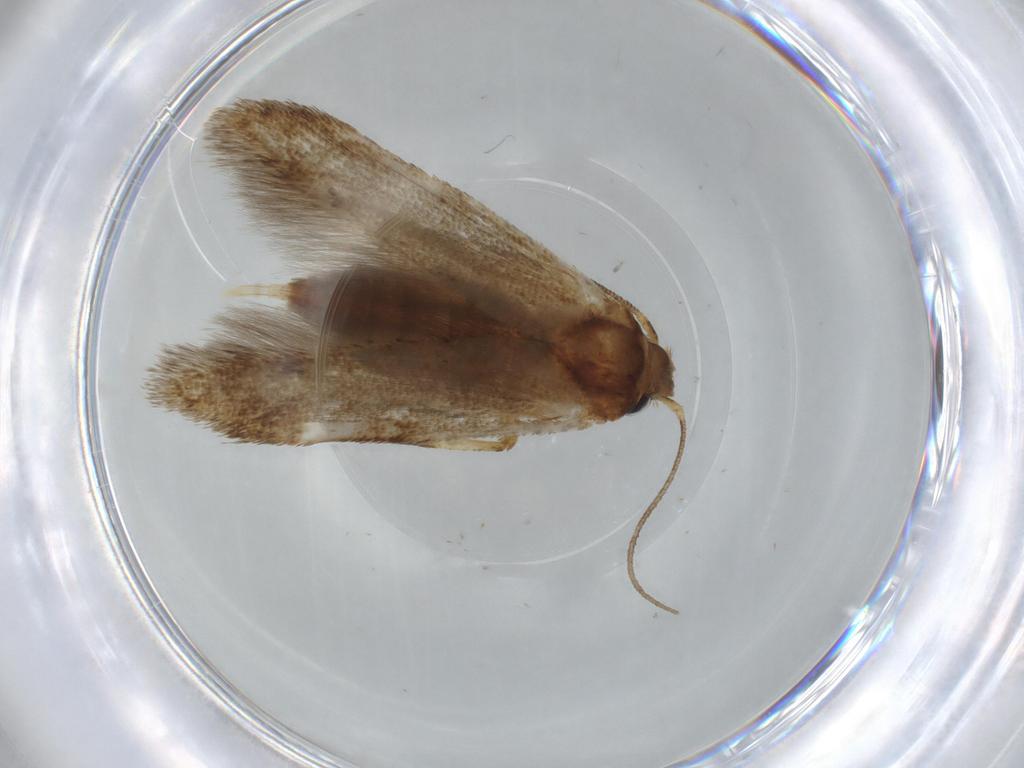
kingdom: Animalia
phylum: Arthropoda
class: Insecta
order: Lepidoptera
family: Blastobasidae
